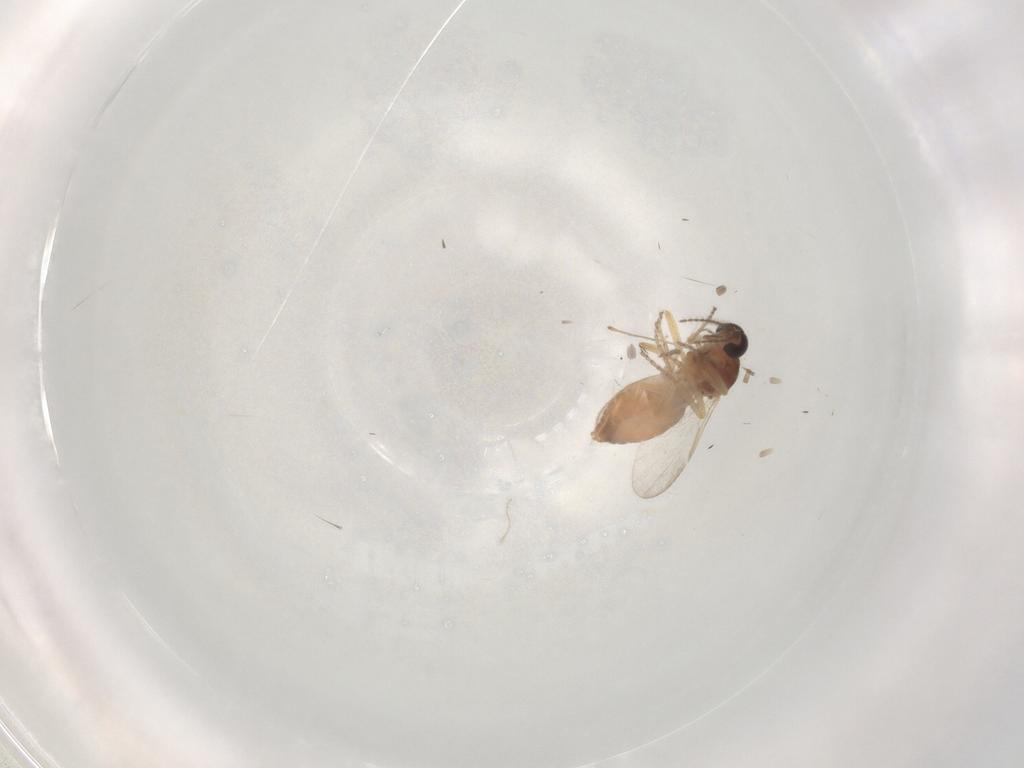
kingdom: Animalia
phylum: Arthropoda
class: Insecta
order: Diptera
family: Ceratopogonidae
